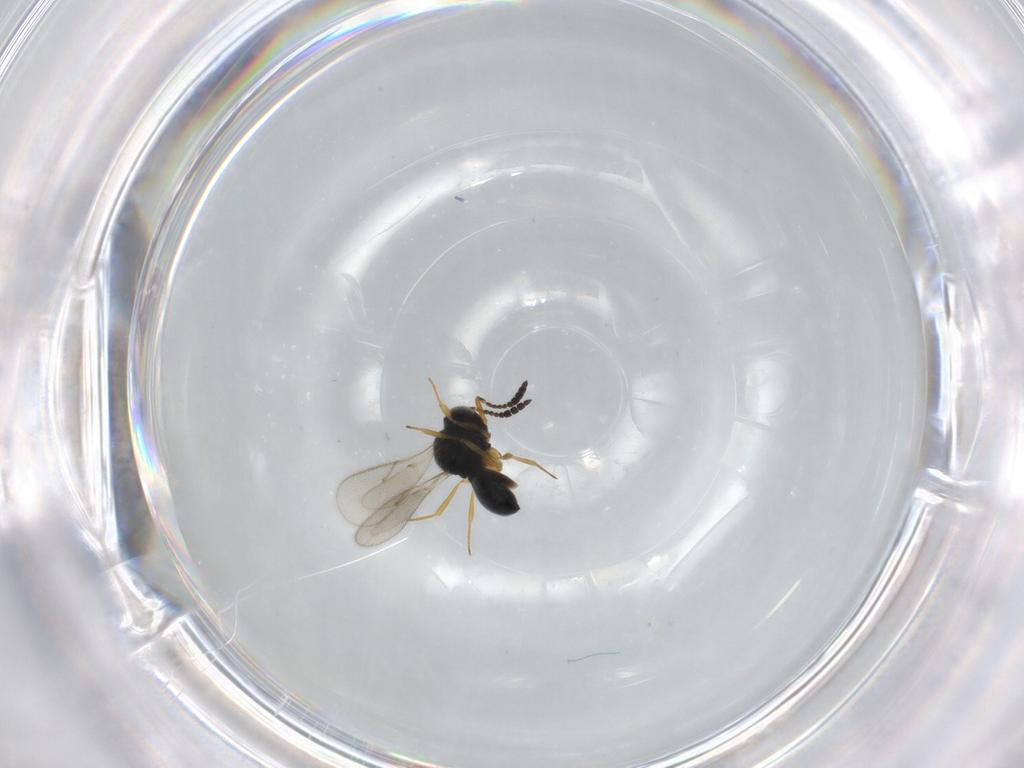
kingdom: Animalia
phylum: Arthropoda
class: Insecta
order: Hymenoptera
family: Scelionidae
